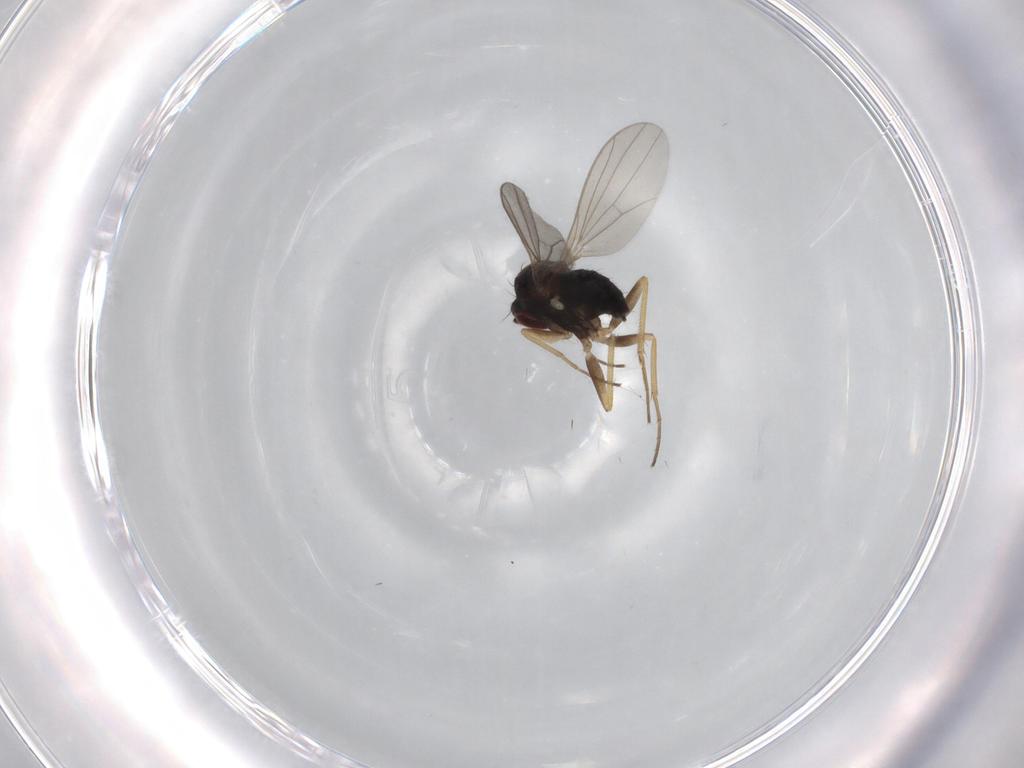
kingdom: Animalia
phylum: Arthropoda
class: Insecta
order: Diptera
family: Dolichopodidae
